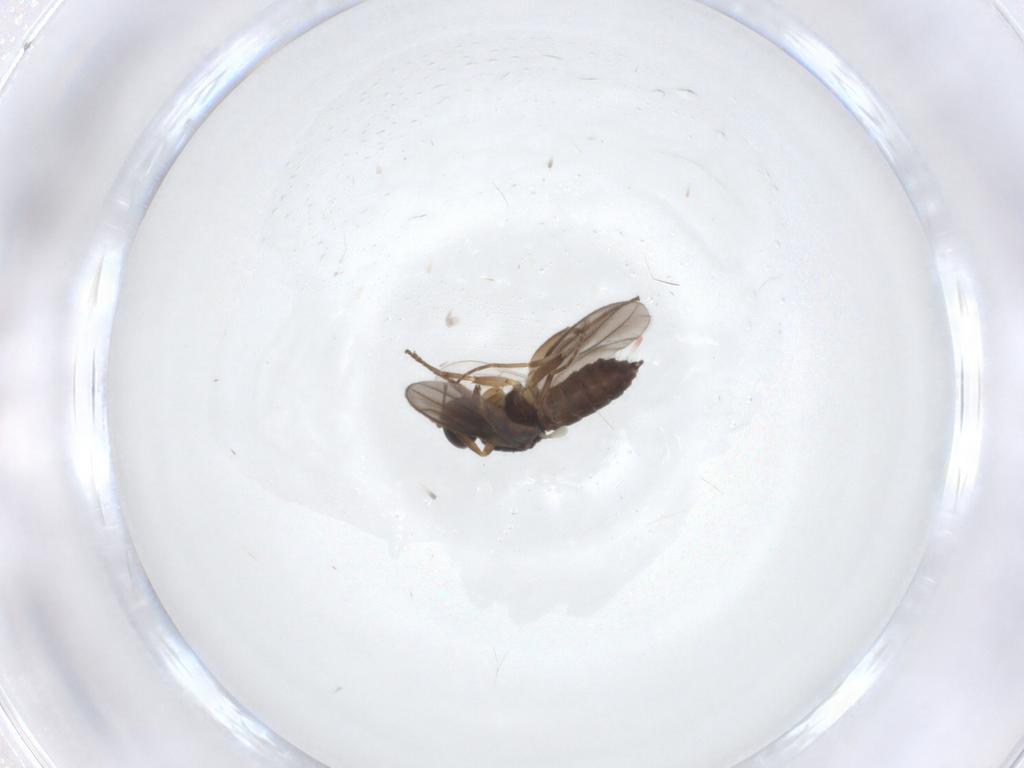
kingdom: Animalia
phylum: Arthropoda
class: Insecta
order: Diptera
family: Hybotidae
